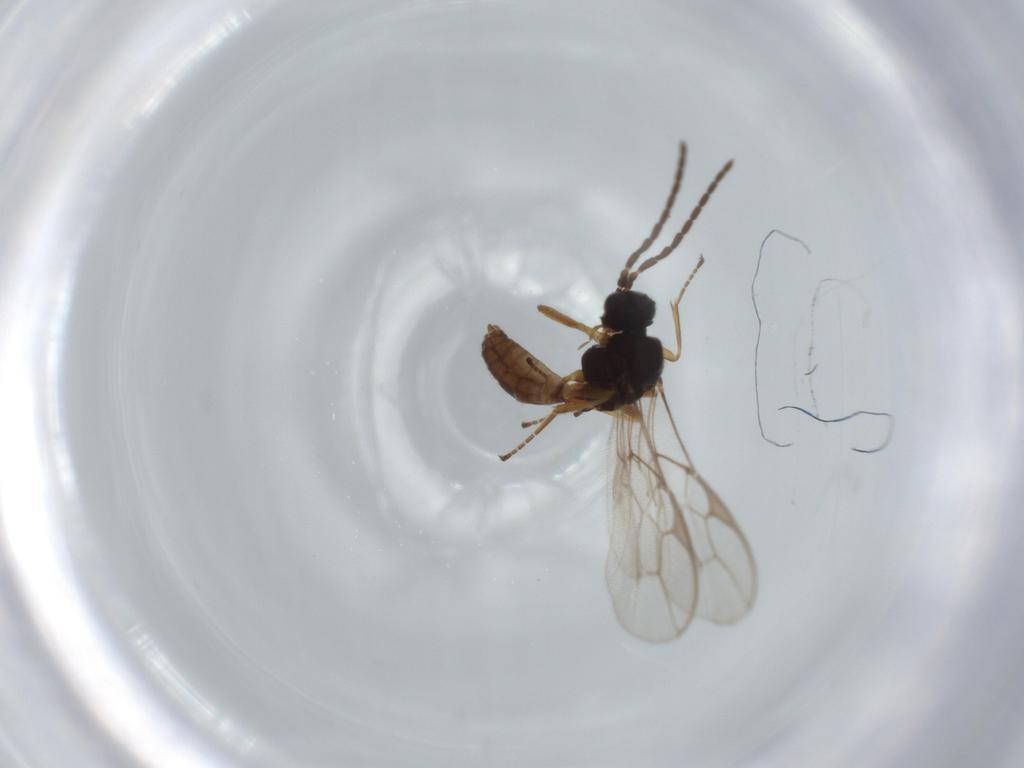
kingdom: Animalia
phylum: Arthropoda
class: Insecta
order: Hymenoptera
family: Braconidae
